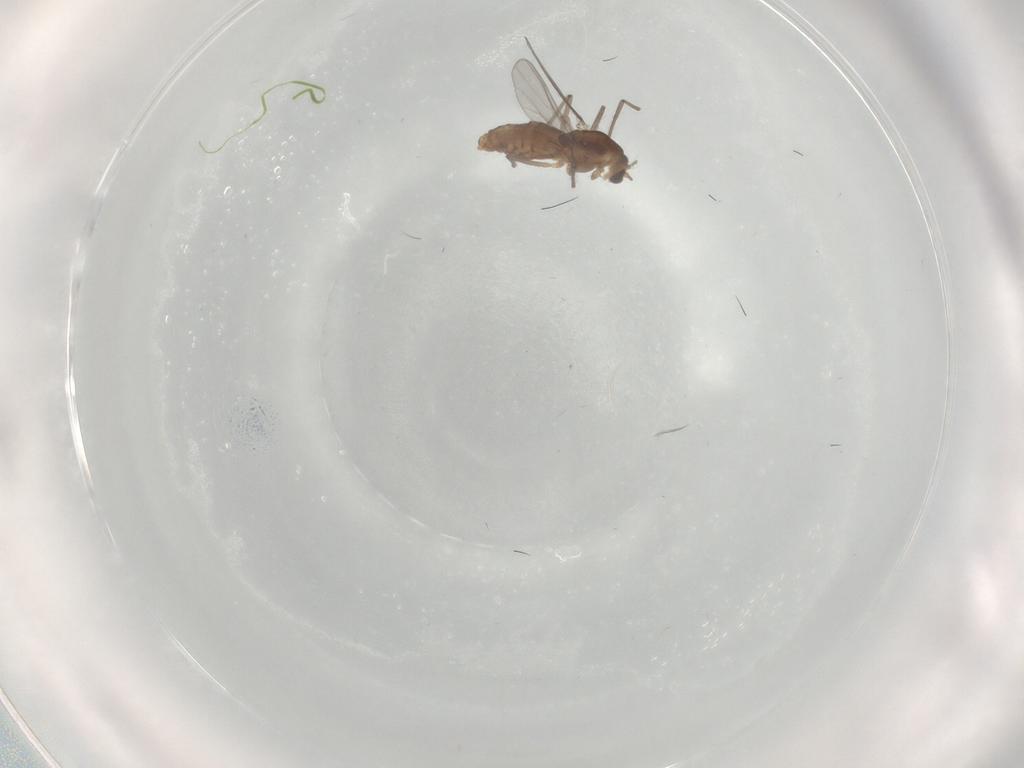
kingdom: Animalia
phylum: Arthropoda
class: Insecta
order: Diptera
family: Chironomidae
